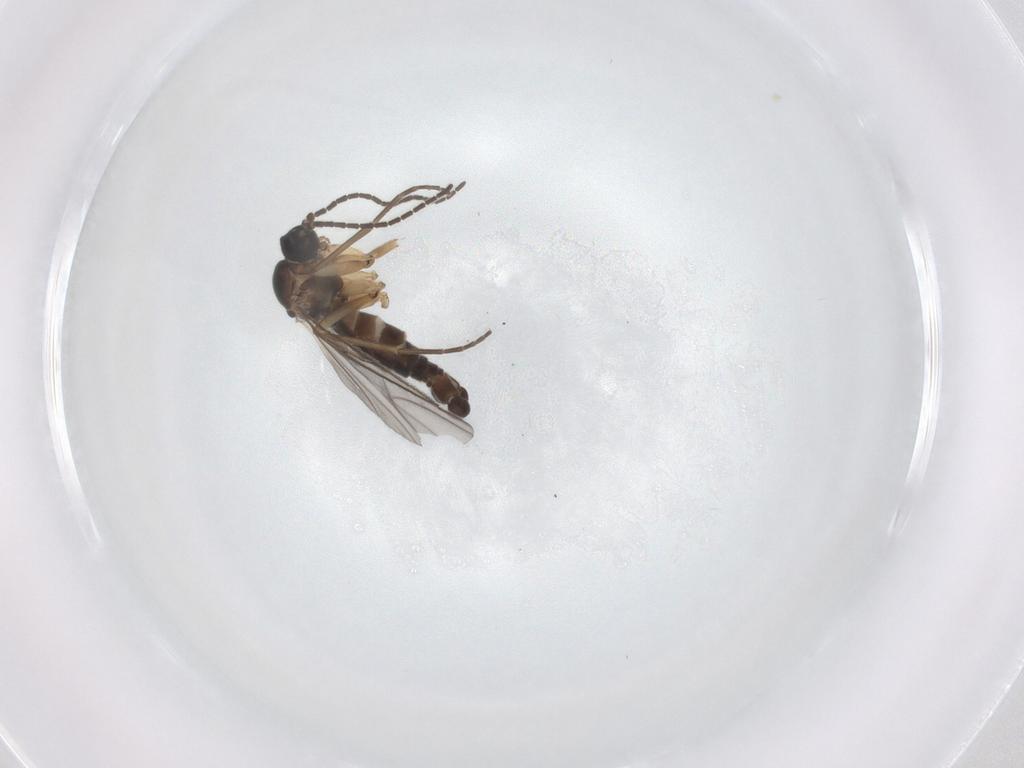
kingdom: Animalia
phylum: Arthropoda
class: Insecta
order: Diptera
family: Sciaridae
